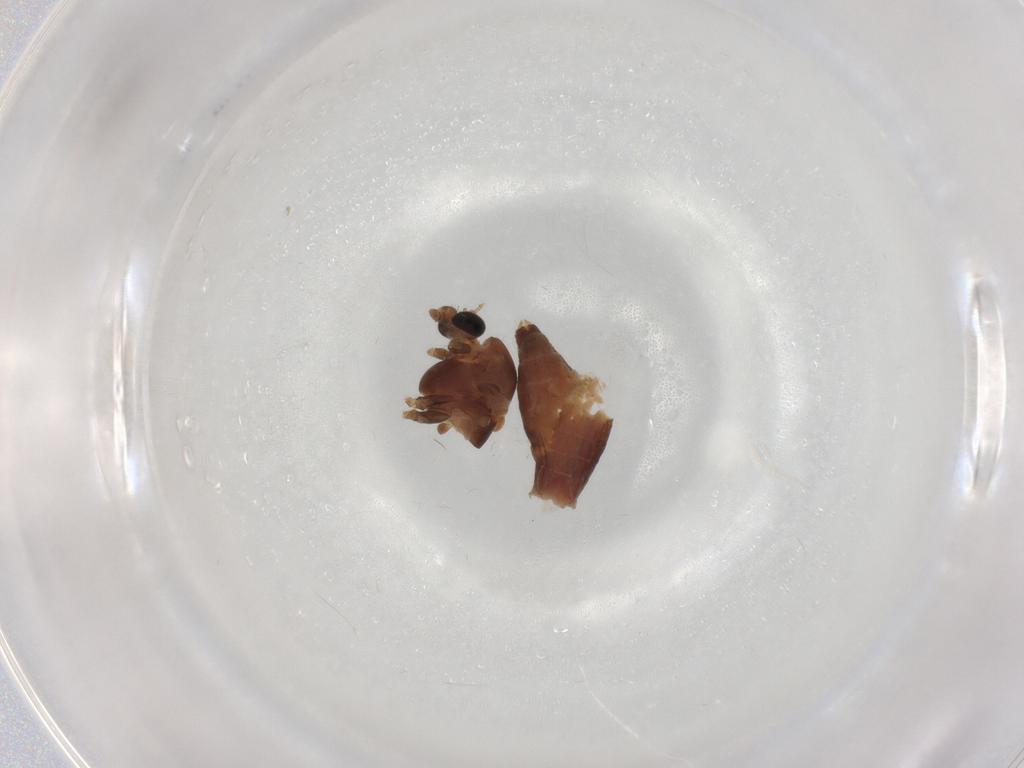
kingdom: Animalia
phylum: Arthropoda
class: Insecta
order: Diptera
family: Chironomidae
